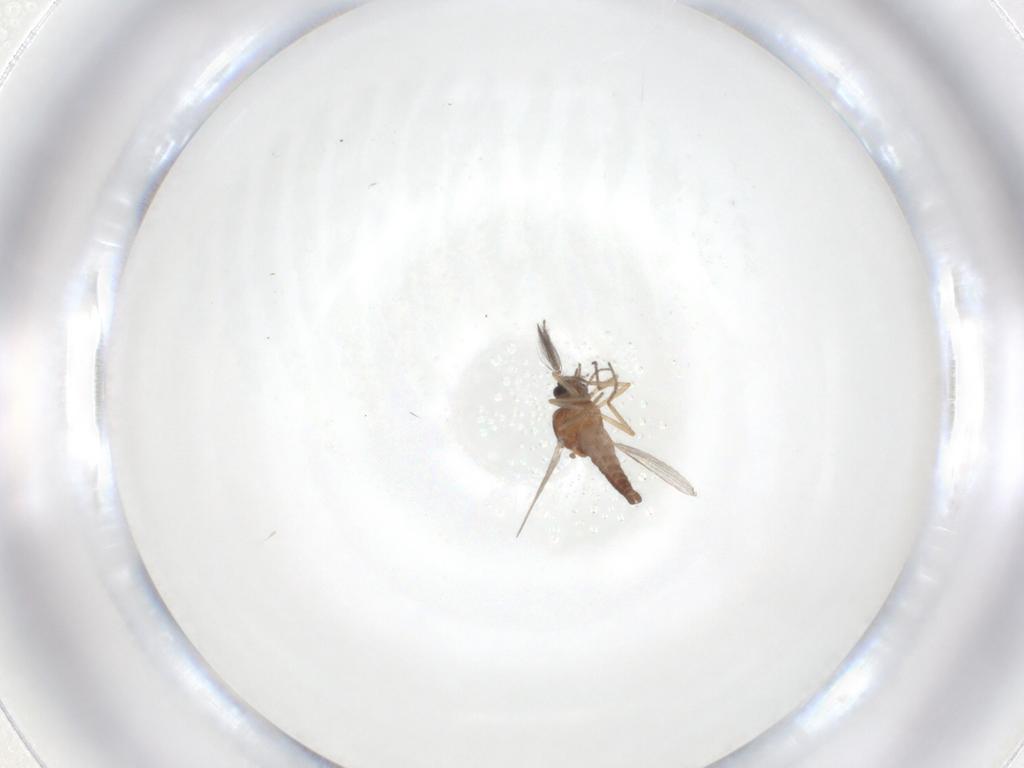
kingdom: Animalia
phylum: Arthropoda
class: Insecta
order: Diptera
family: Ceratopogonidae
